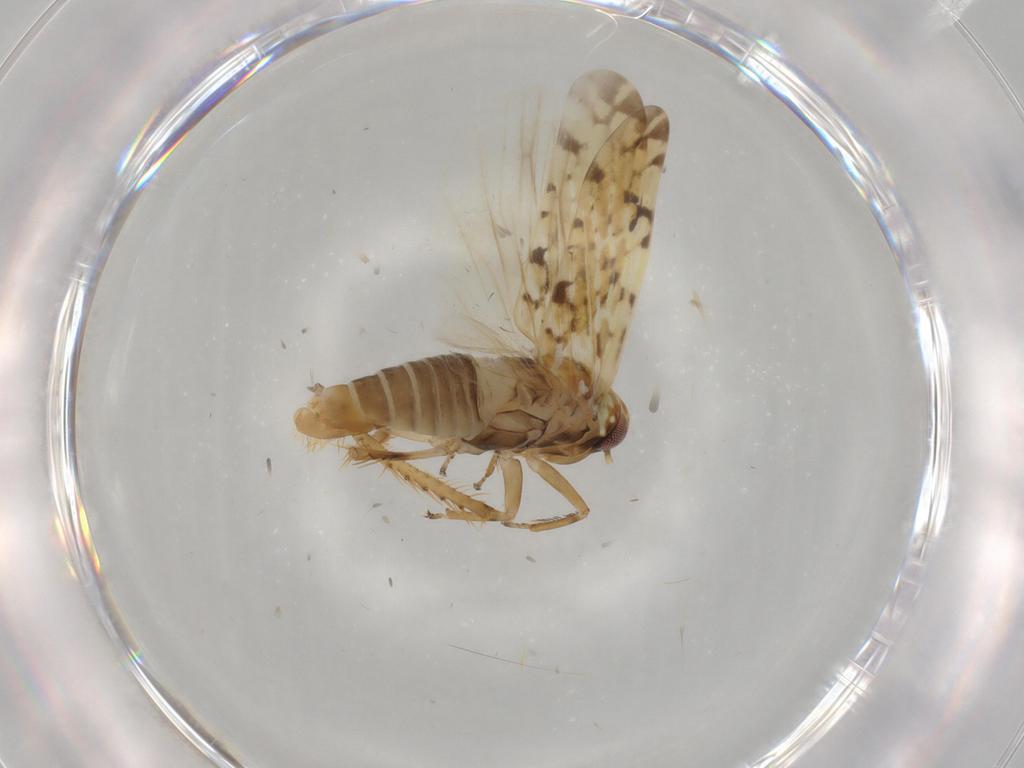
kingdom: Animalia
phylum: Arthropoda
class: Insecta
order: Hemiptera
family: Cicadellidae
